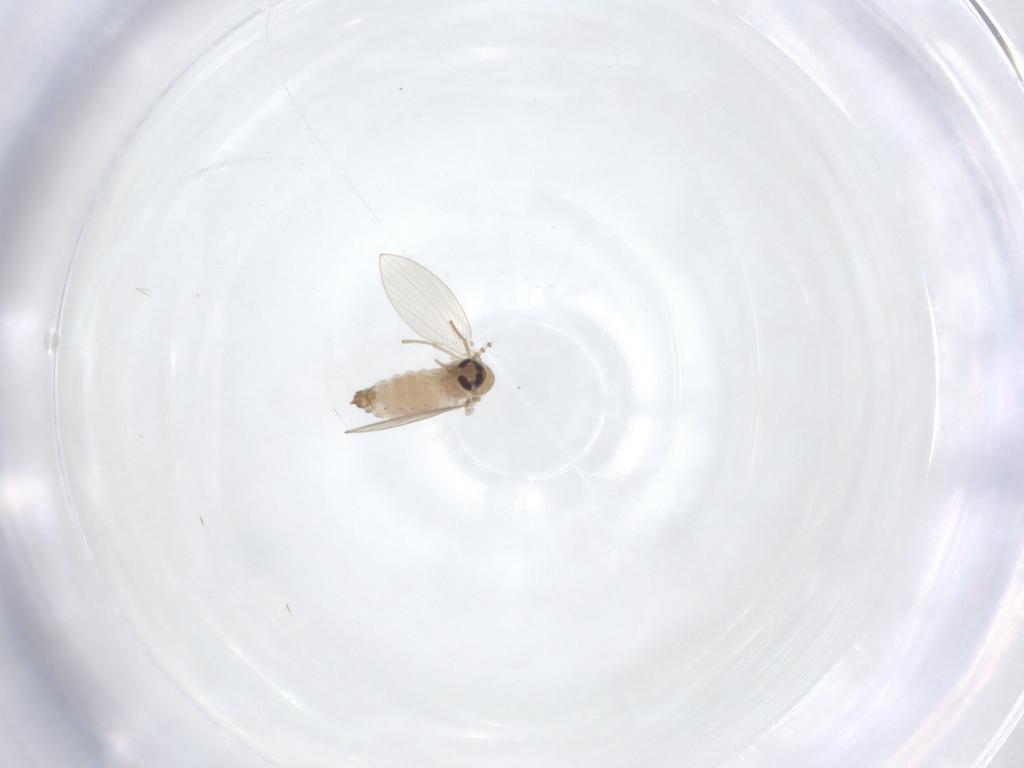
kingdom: Animalia
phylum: Arthropoda
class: Insecta
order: Diptera
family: Psychodidae
